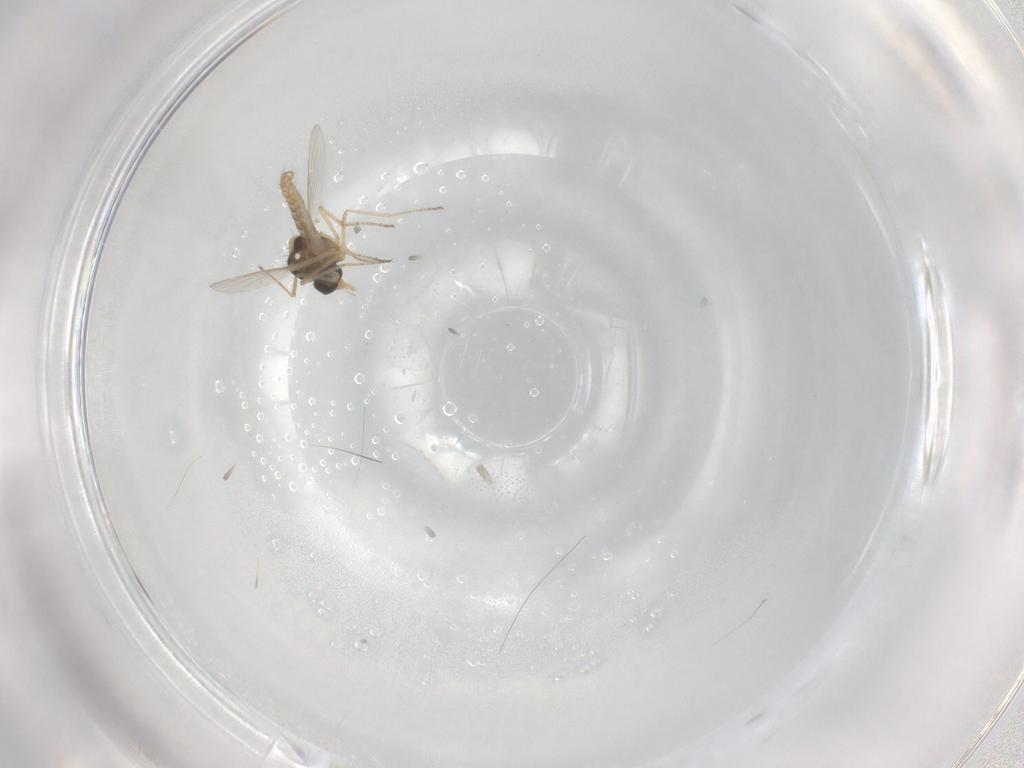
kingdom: Animalia
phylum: Arthropoda
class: Insecta
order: Diptera
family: Ceratopogonidae
